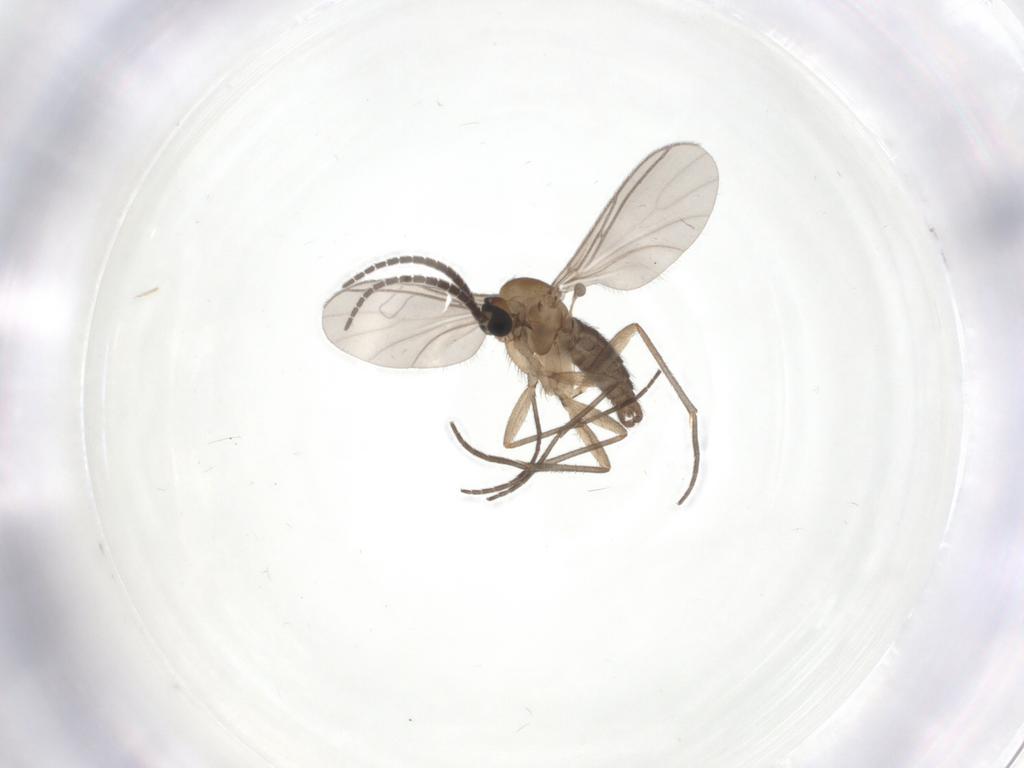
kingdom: Animalia
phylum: Arthropoda
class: Insecta
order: Diptera
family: Sciaridae
